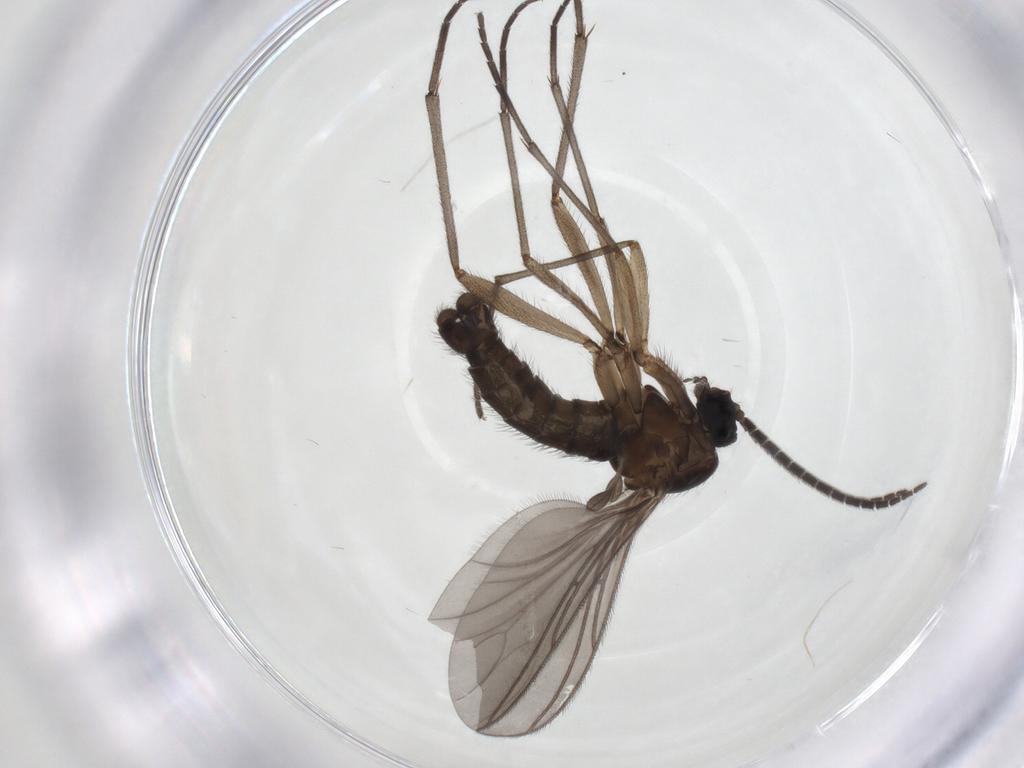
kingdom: Animalia
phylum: Arthropoda
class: Insecta
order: Diptera
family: Sciaridae
